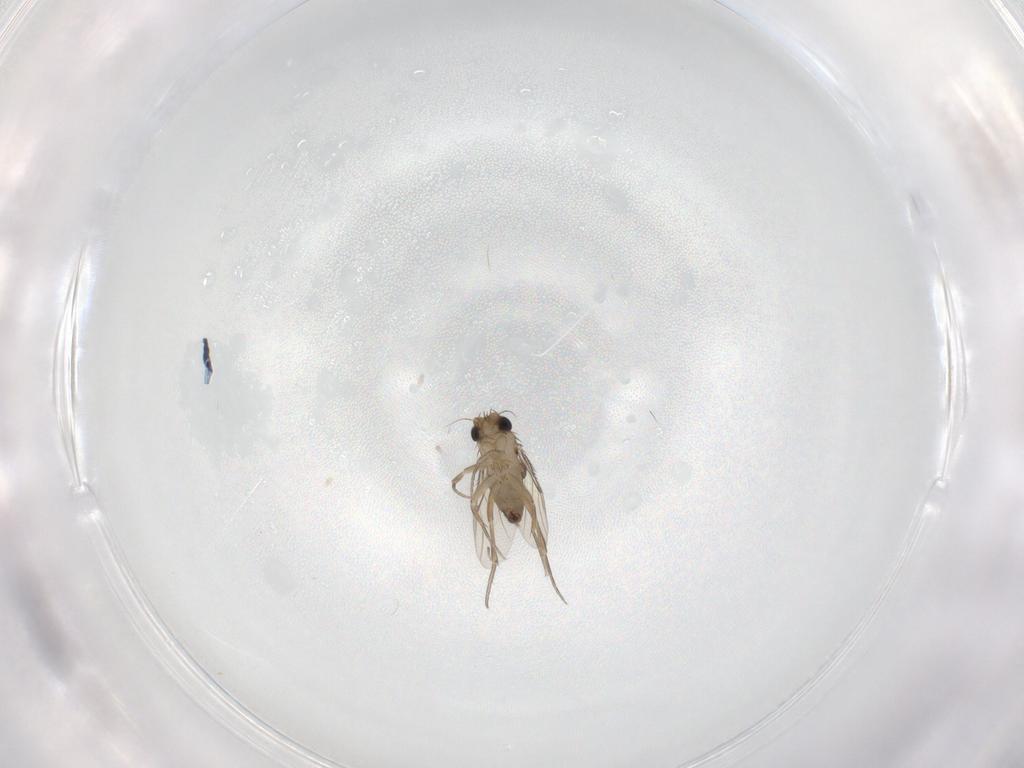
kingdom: Animalia
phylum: Arthropoda
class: Insecta
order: Diptera
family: Phoridae
